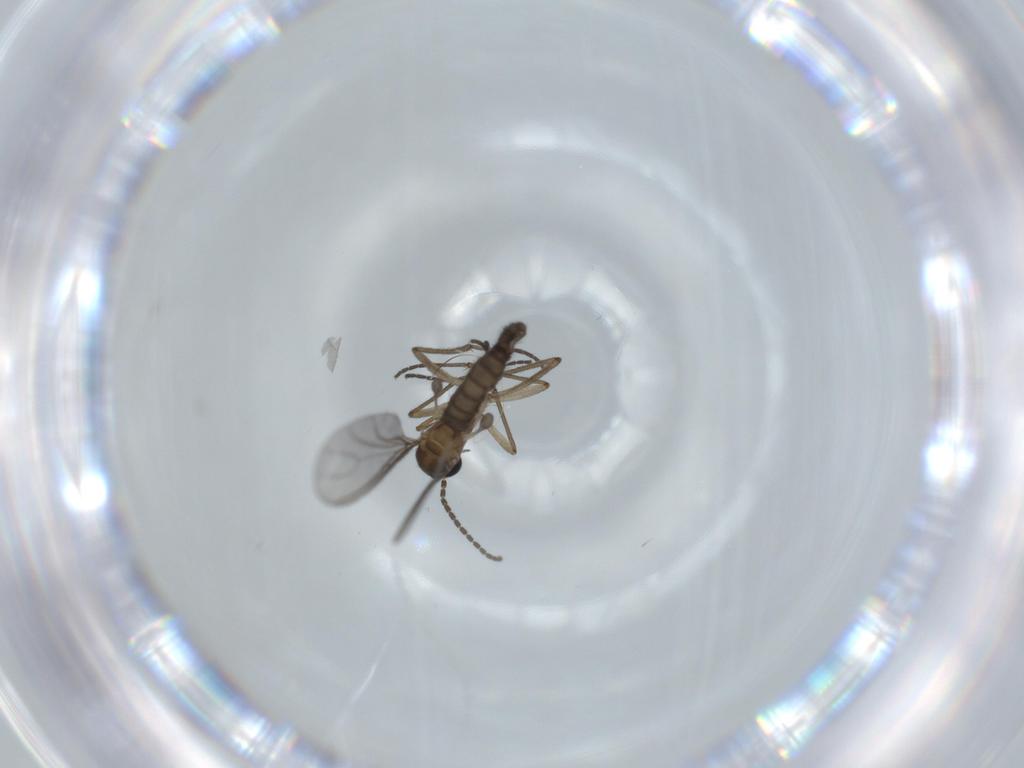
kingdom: Animalia
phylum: Arthropoda
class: Insecta
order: Diptera
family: Sciaridae
